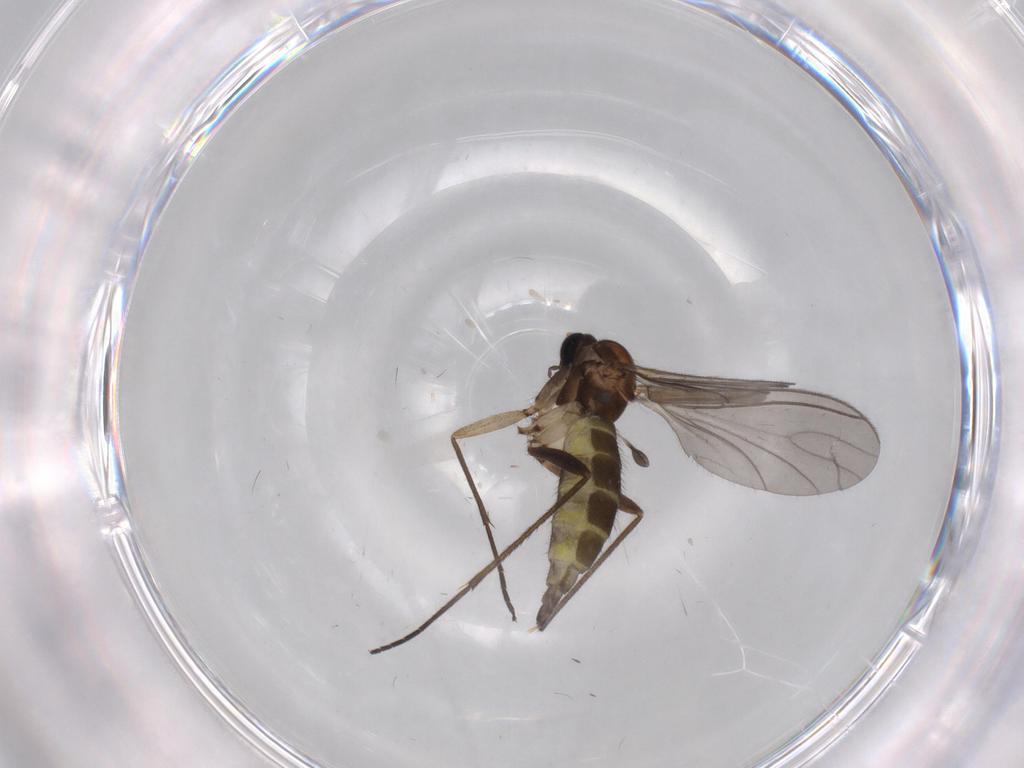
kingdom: Animalia
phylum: Arthropoda
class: Insecta
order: Diptera
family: Sciaridae
